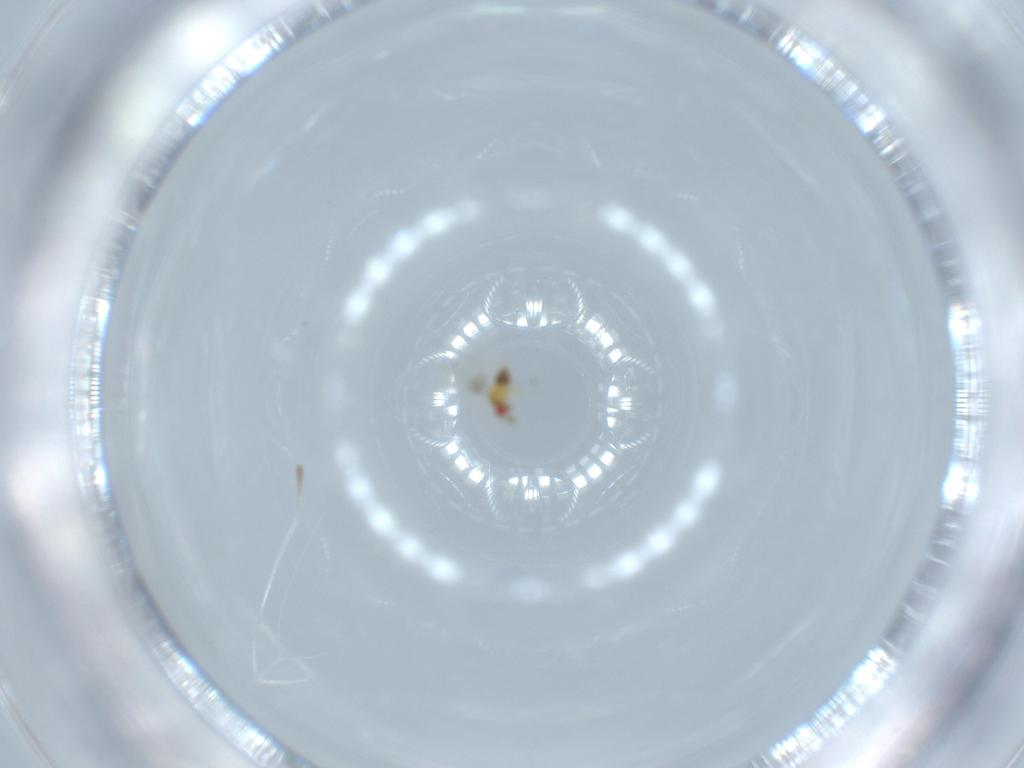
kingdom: Animalia
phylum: Arthropoda
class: Insecta
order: Hymenoptera
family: Trichogrammatidae
